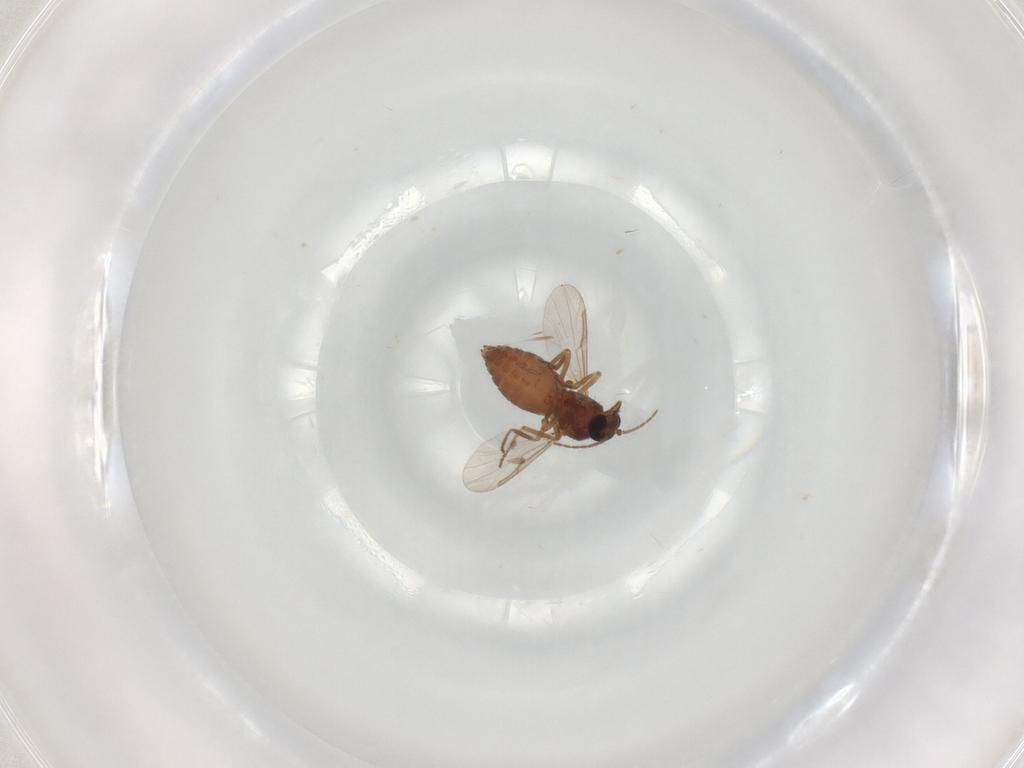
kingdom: Animalia
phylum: Arthropoda
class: Insecta
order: Diptera
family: Ceratopogonidae
